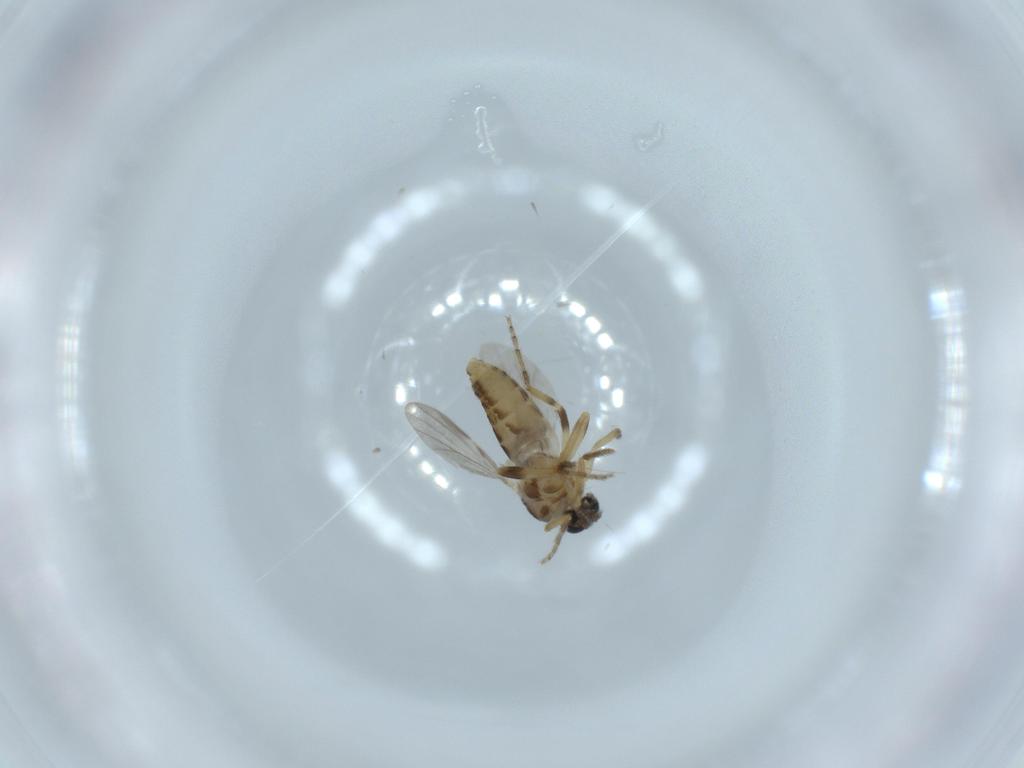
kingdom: Animalia
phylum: Arthropoda
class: Insecta
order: Diptera
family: Ceratopogonidae
